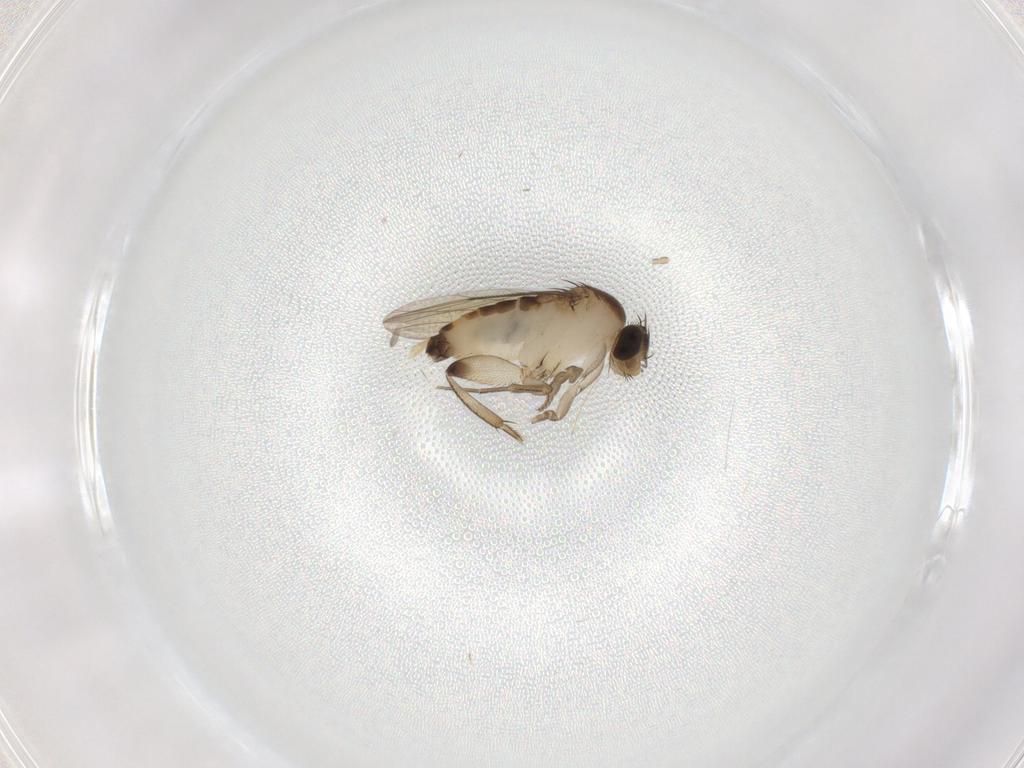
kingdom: Animalia
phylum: Arthropoda
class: Insecta
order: Diptera
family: Phoridae
